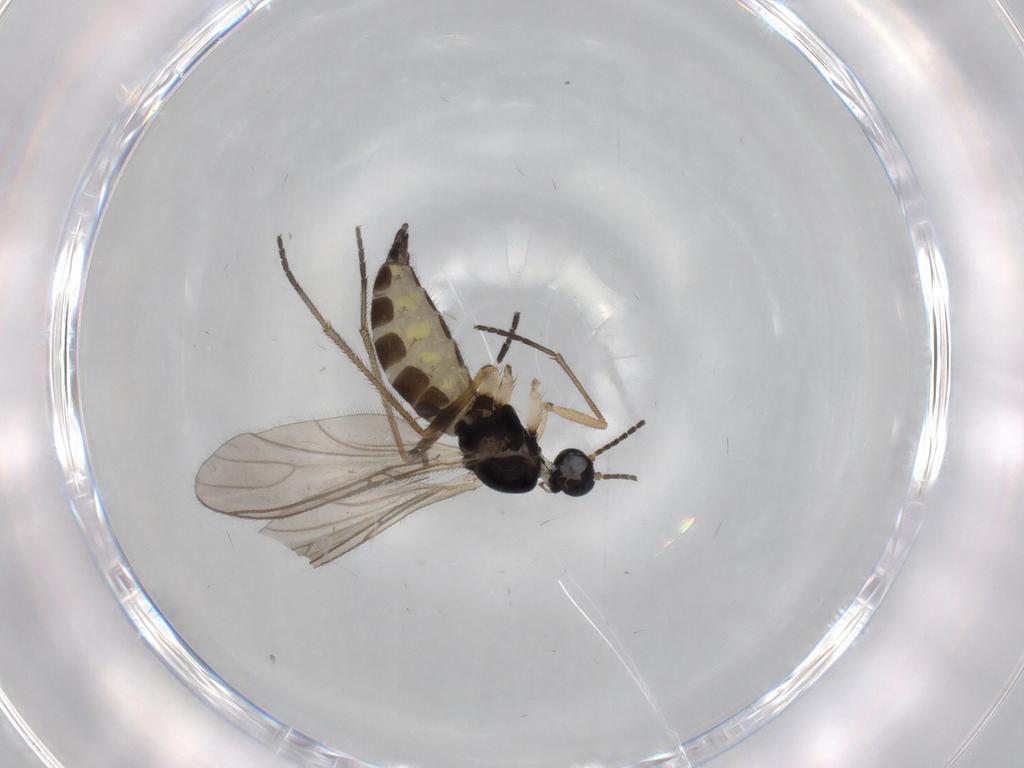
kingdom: Animalia
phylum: Arthropoda
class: Insecta
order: Diptera
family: Sciaridae
